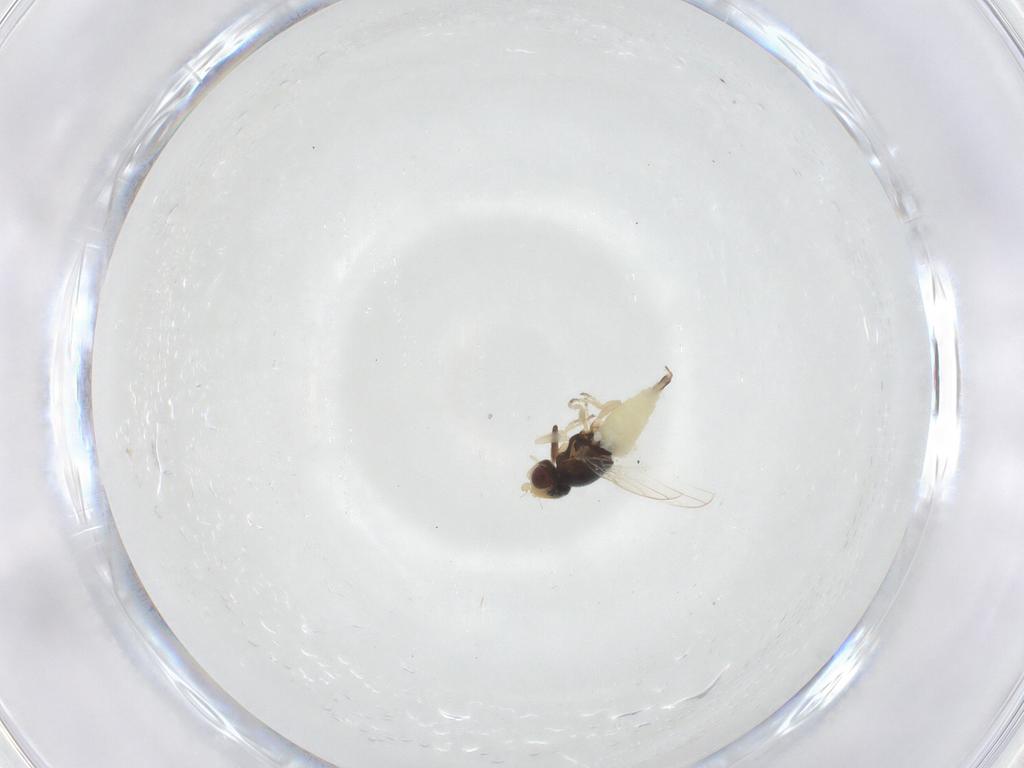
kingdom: Animalia
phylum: Arthropoda
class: Insecta
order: Diptera
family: Chloropidae
